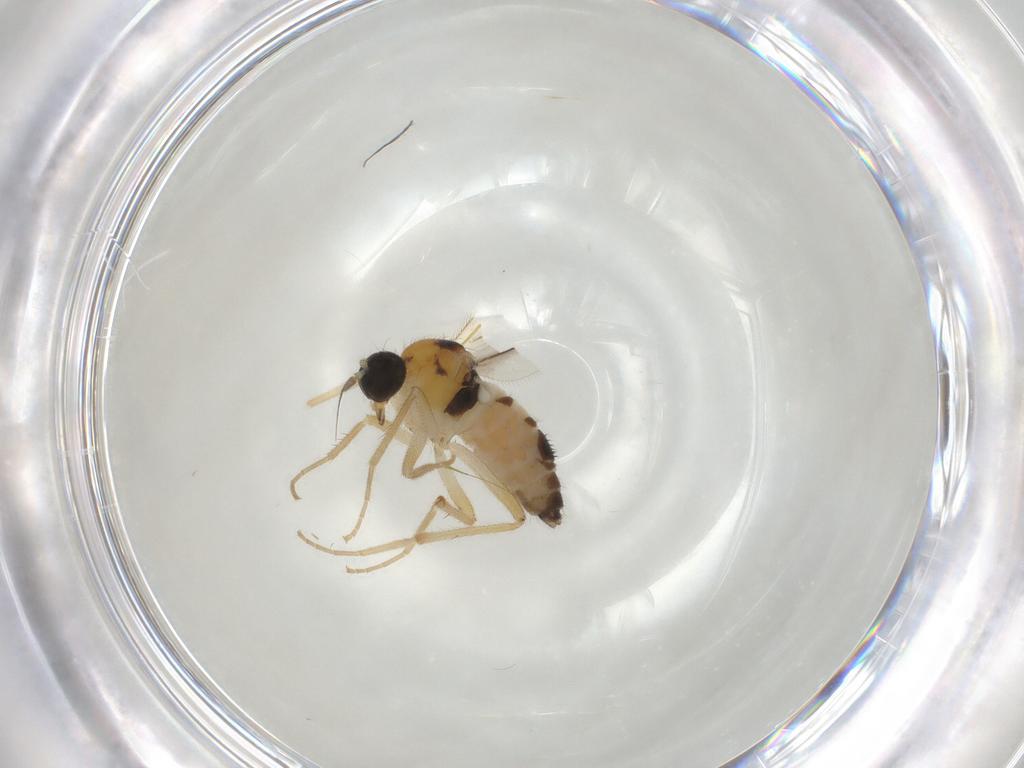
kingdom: Animalia
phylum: Arthropoda
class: Insecta
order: Diptera
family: Hybotidae
